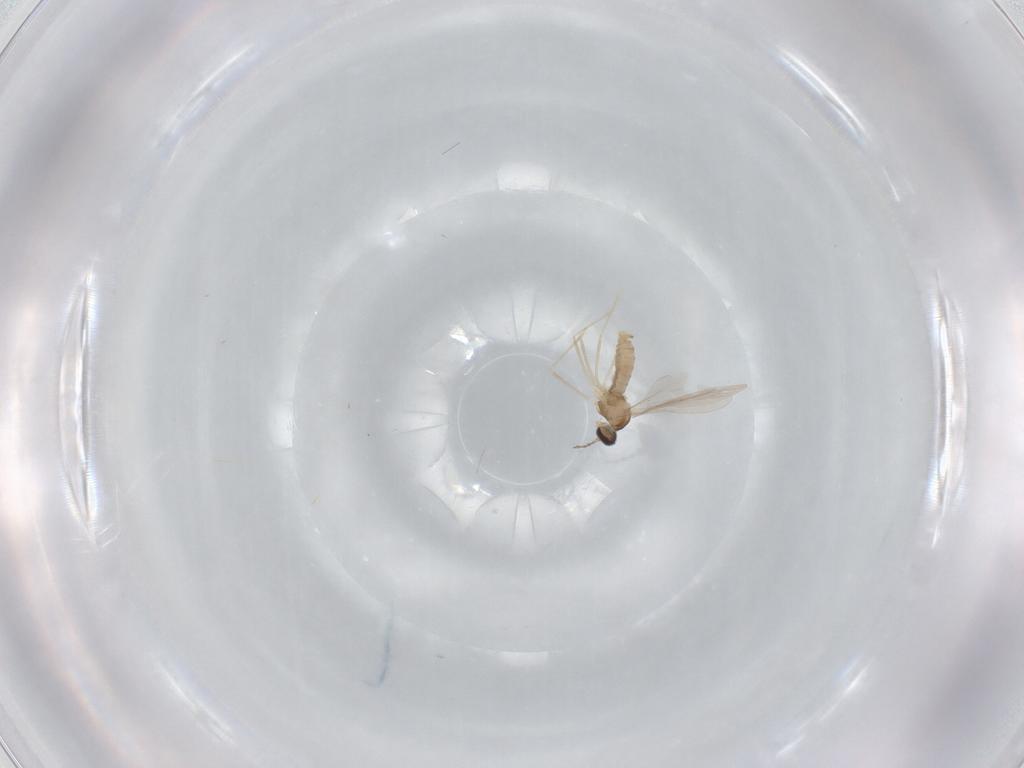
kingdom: Animalia
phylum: Arthropoda
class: Insecta
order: Diptera
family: Cecidomyiidae
